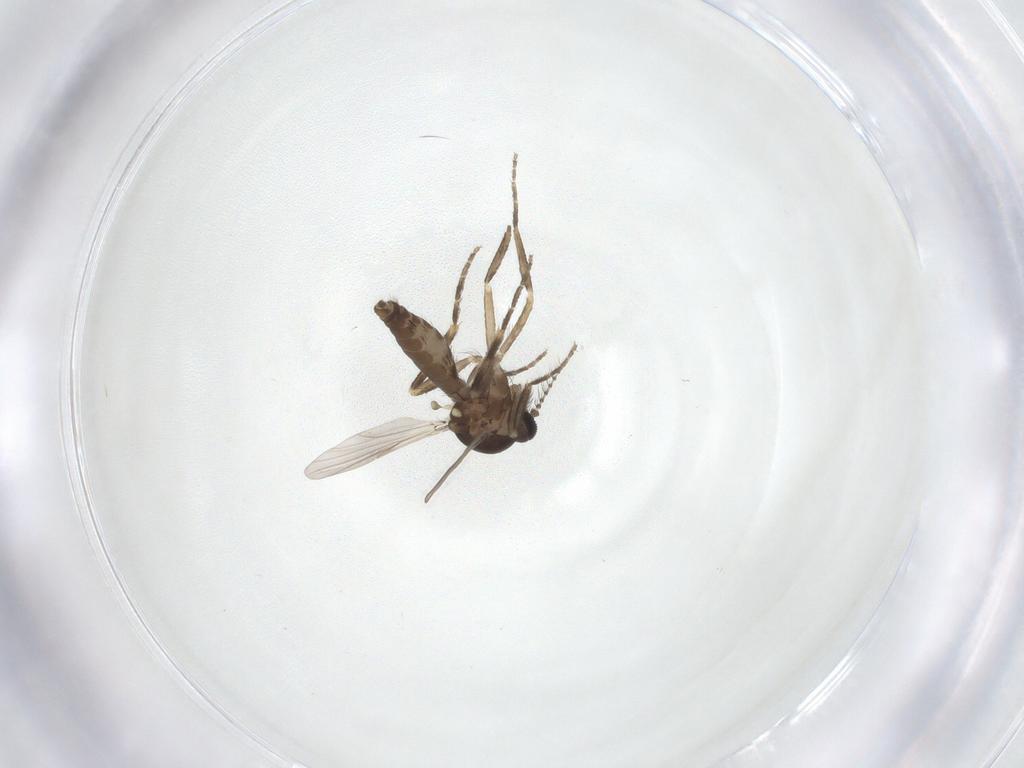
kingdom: Animalia
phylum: Arthropoda
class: Insecta
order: Diptera
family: Ceratopogonidae
